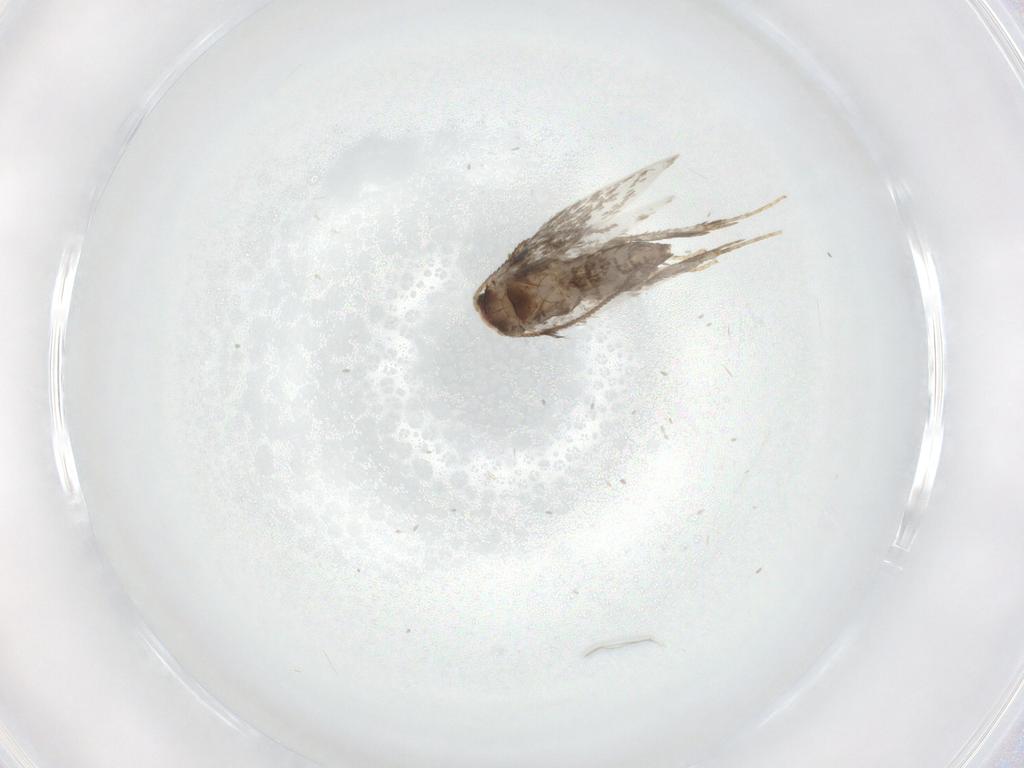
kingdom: Animalia
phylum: Arthropoda
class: Insecta
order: Lepidoptera
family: Nepticulidae
